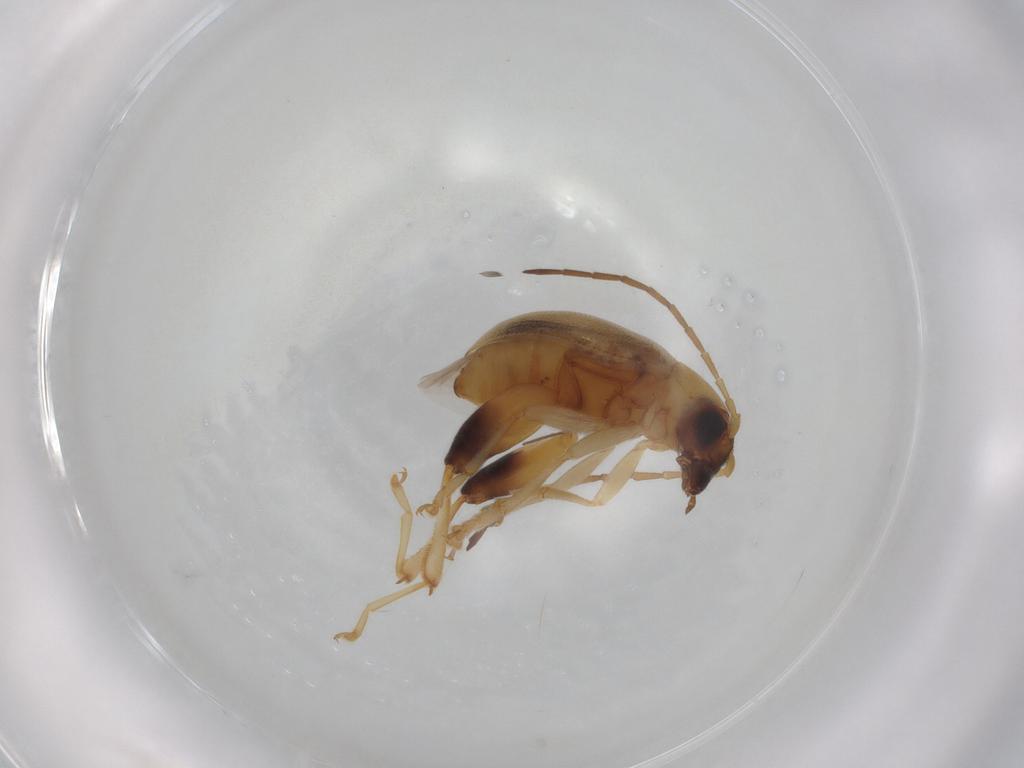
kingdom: Animalia
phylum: Arthropoda
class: Insecta
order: Coleoptera
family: Chrysomelidae
